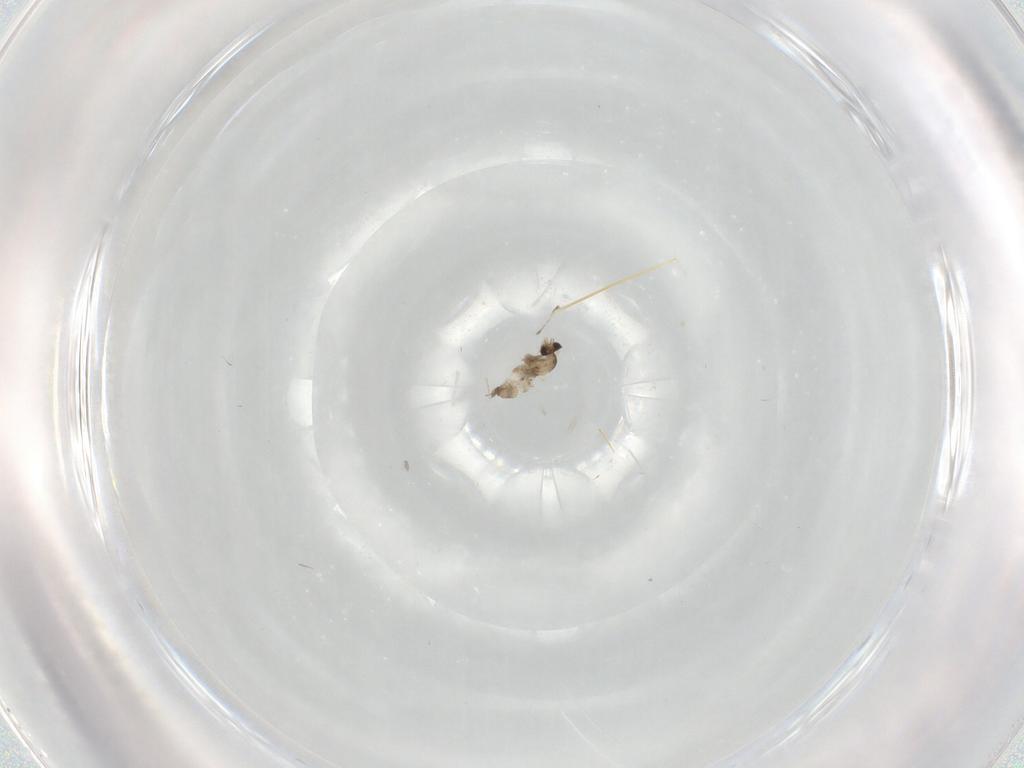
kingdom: Animalia
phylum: Arthropoda
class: Insecta
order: Diptera
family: Cecidomyiidae
